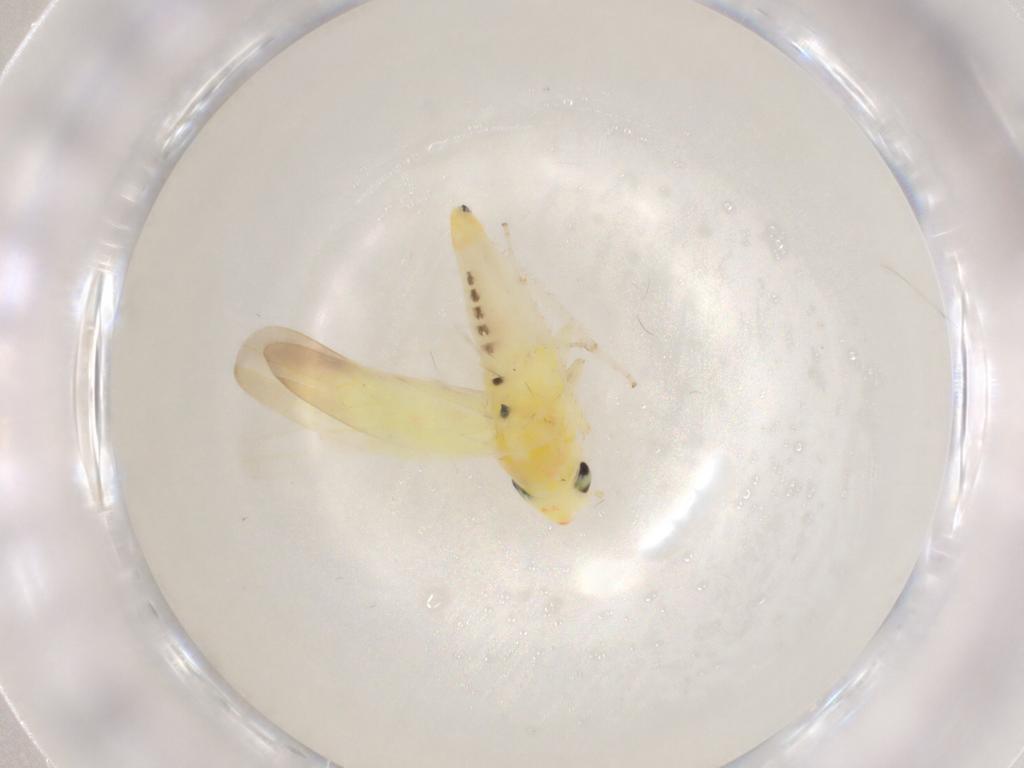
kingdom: Animalia
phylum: Arthropoda
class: Insecta
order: Hemiptera
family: Cicadellidae
